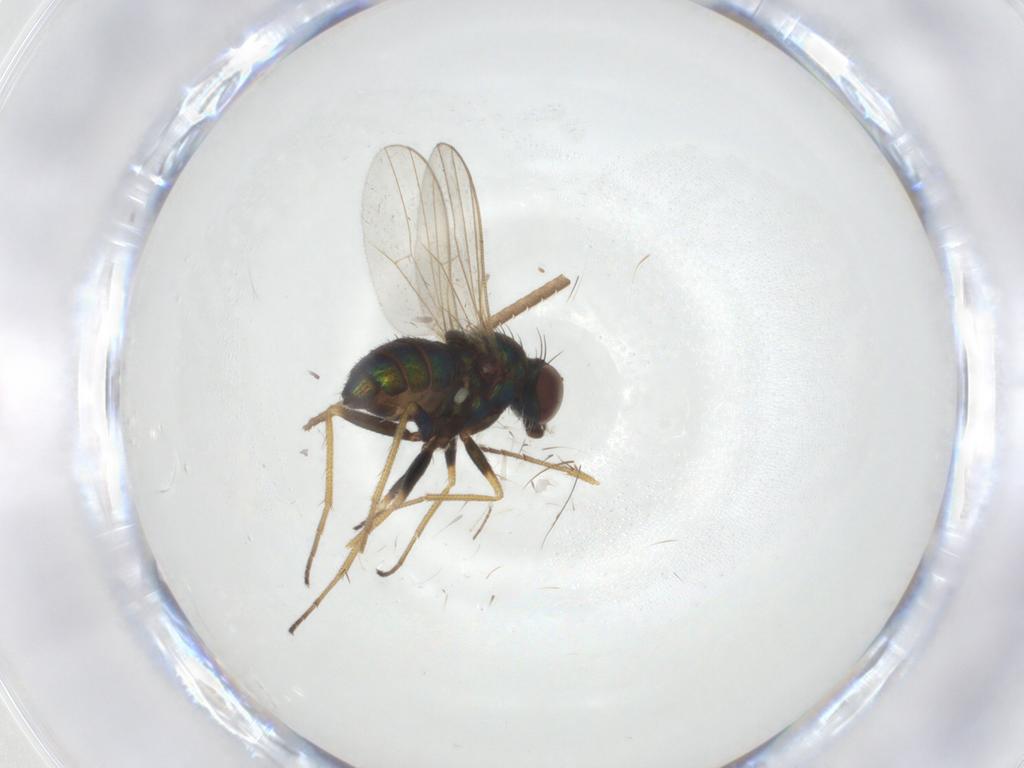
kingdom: Animalia
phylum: Arthropoda
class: Insecta
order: Diptera
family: Dolichopodidae
